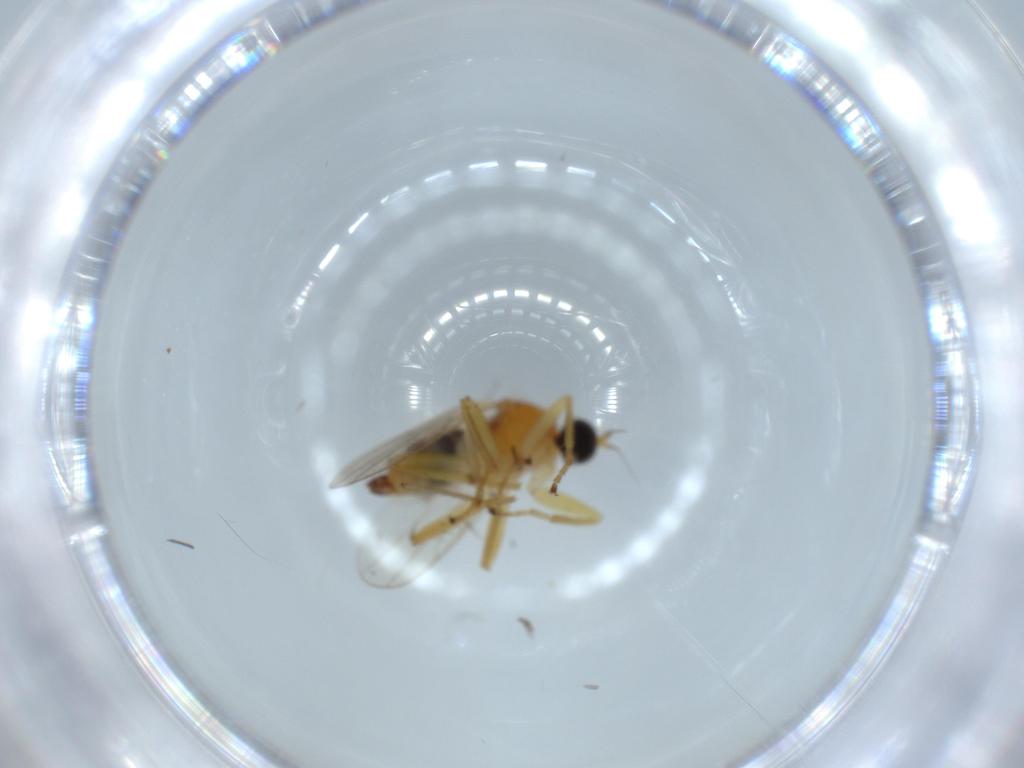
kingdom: Animalia
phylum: Arthropoda
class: Insecta
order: Diptera
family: Hybotidae
